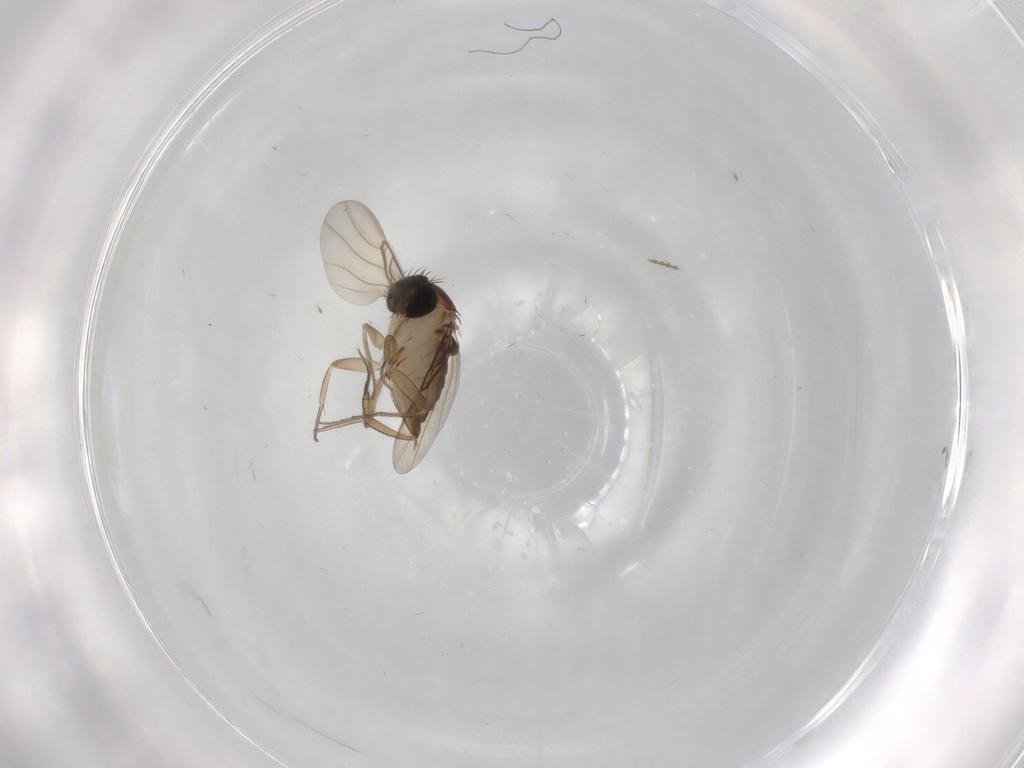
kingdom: Animalia
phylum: Arthropoda
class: Insecta
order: Diptera
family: Phoridae
